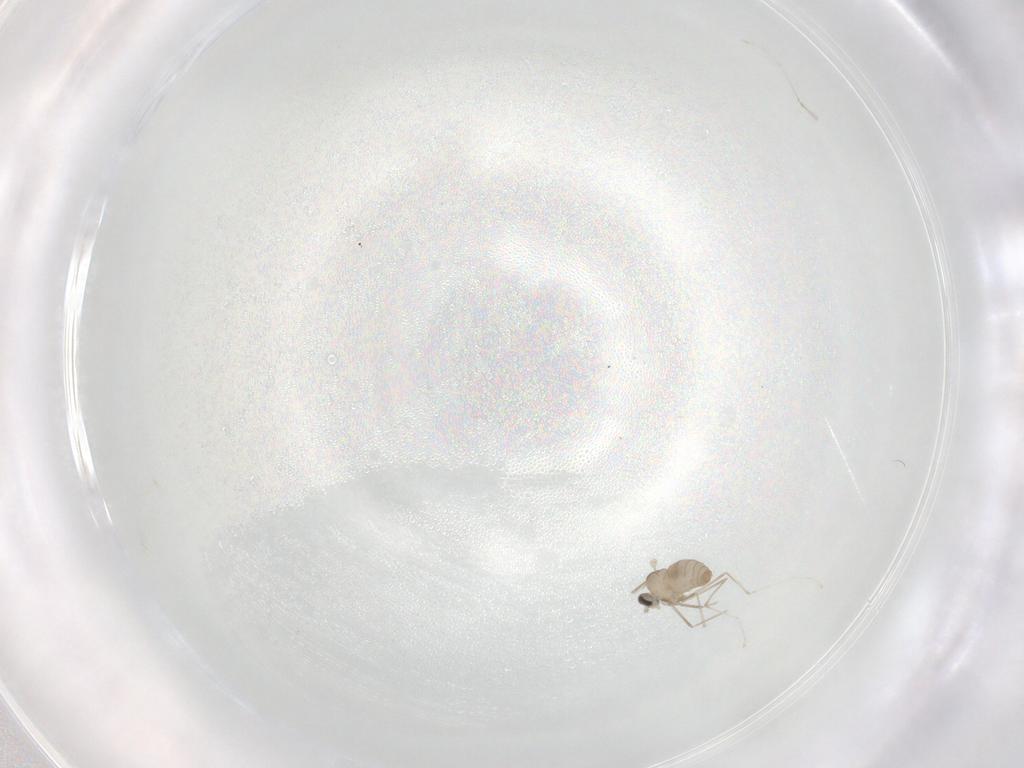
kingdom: Animalia
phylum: Arthropoda
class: Insecta
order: Diptera
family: Cecidomyiidae
